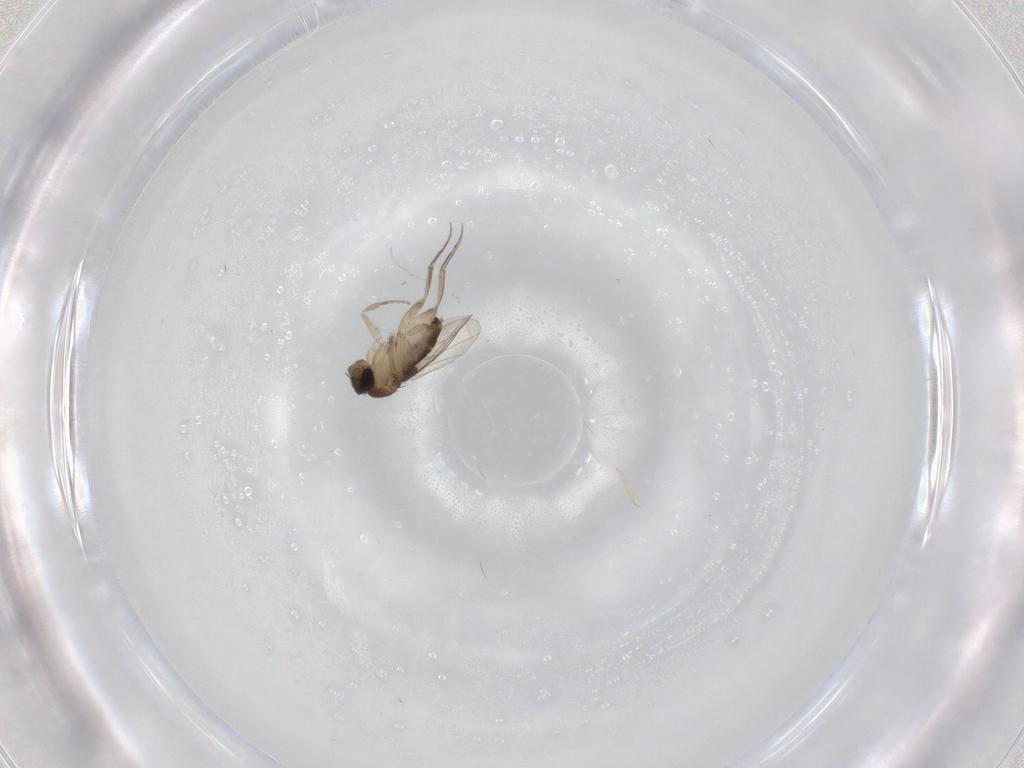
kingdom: Animalia
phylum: Arthropoda
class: Insecta
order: Diptera
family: Phoridae
